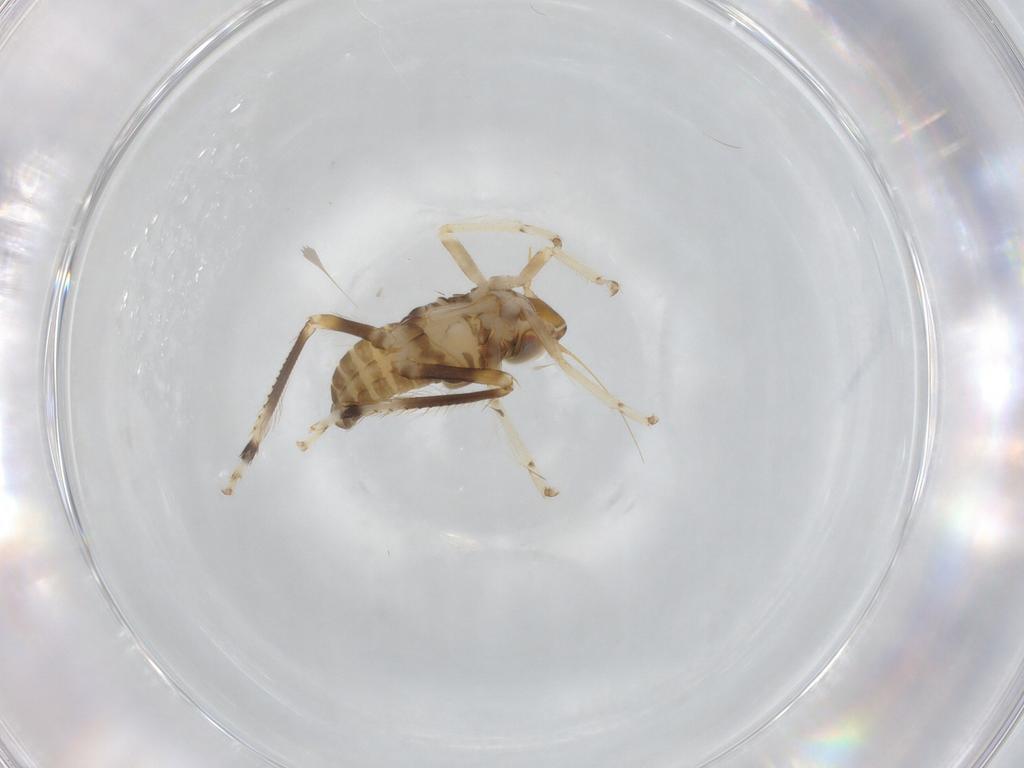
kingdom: Animalia
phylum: Arthropoda
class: Insecta
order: Hemiptera
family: Cicadellidae
